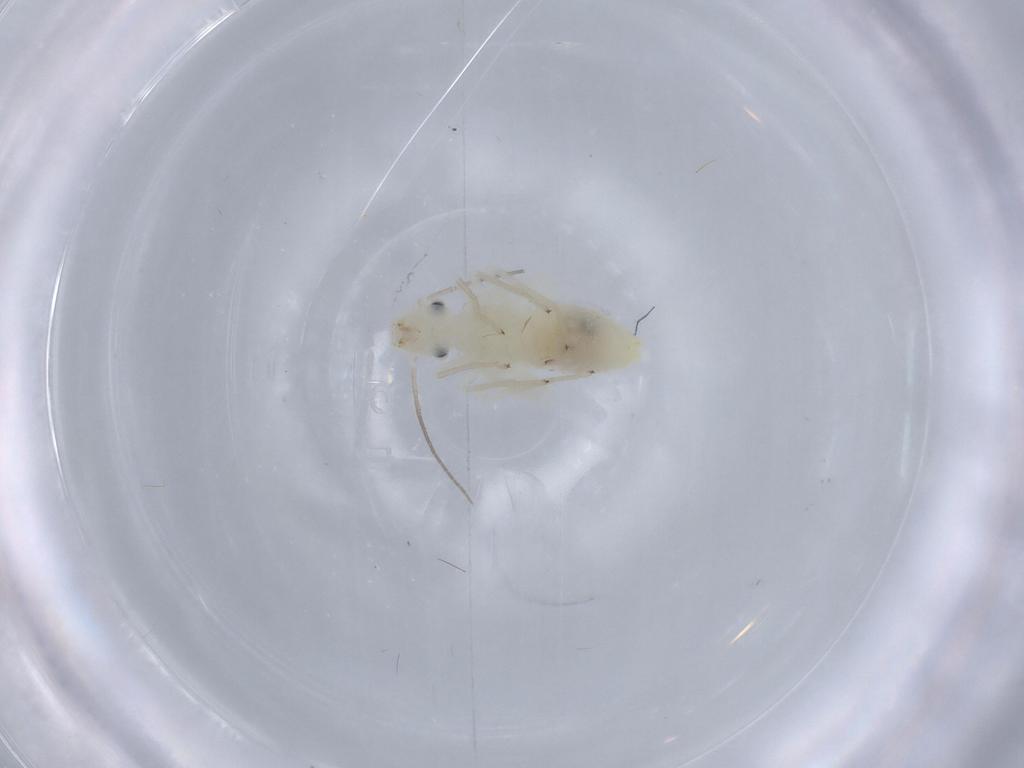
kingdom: Animalia
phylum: Arthropoda
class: Insecta
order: Psocodea
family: Caeciliusidae
